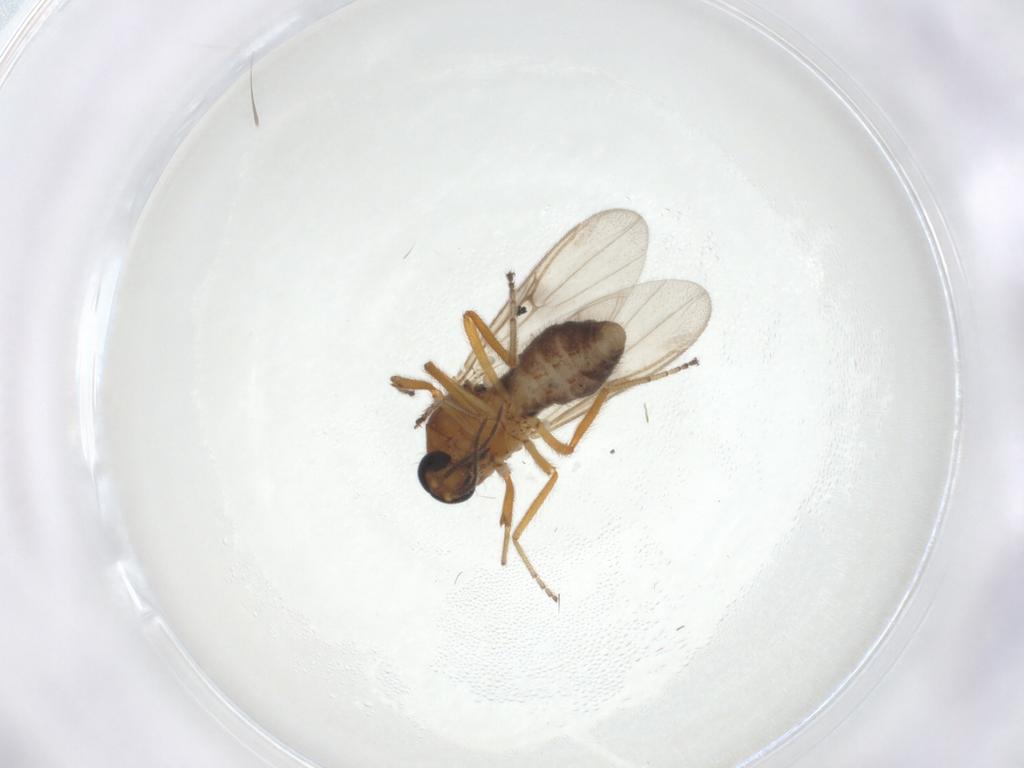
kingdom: Animalia
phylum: Arthropoda
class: Insecta
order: Diptera
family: Ceratopogonidae
